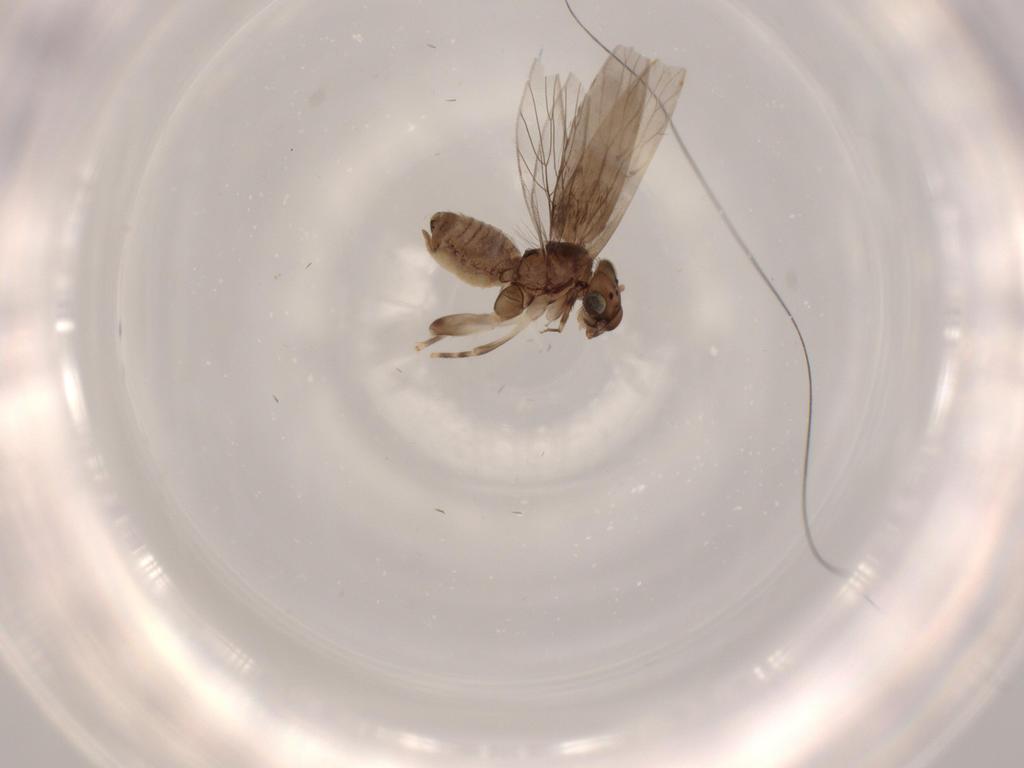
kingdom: Animalia
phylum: Arthropoda
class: Insecta
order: Psocodea
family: Lepidopsocidae
